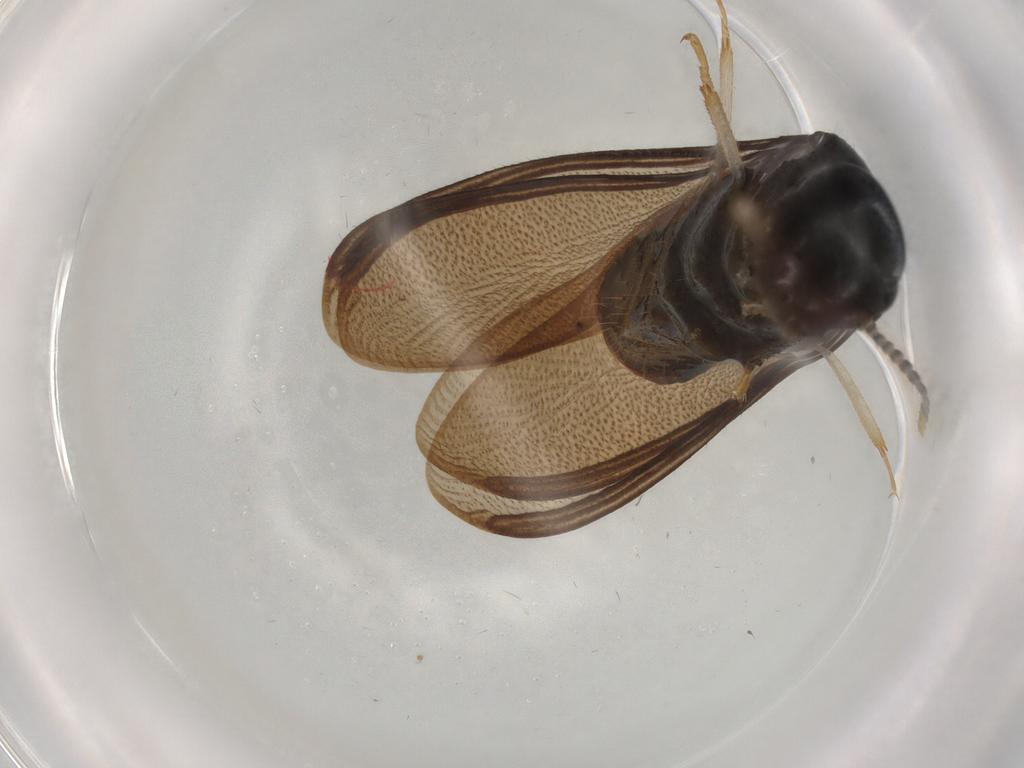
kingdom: Animalia
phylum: Arthropoda
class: Insecta
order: Blattodea
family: Kalotermitidae
